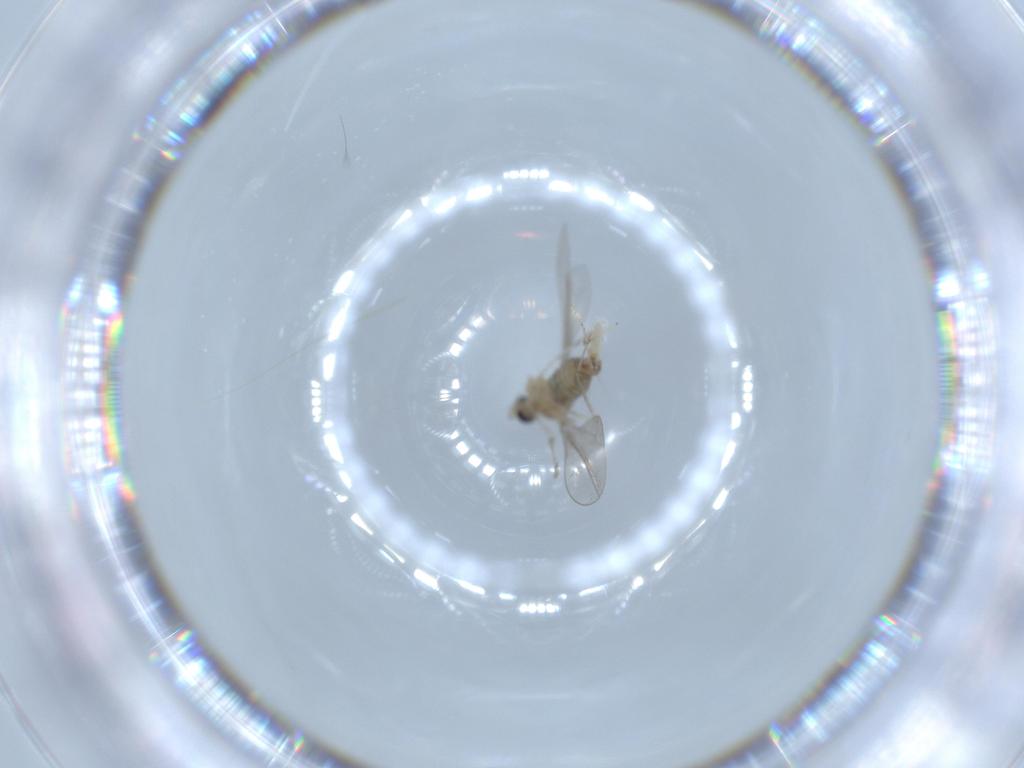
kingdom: Animalia
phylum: Arthropoda
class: Insecta
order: Diptera
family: Cecidomyiidae
